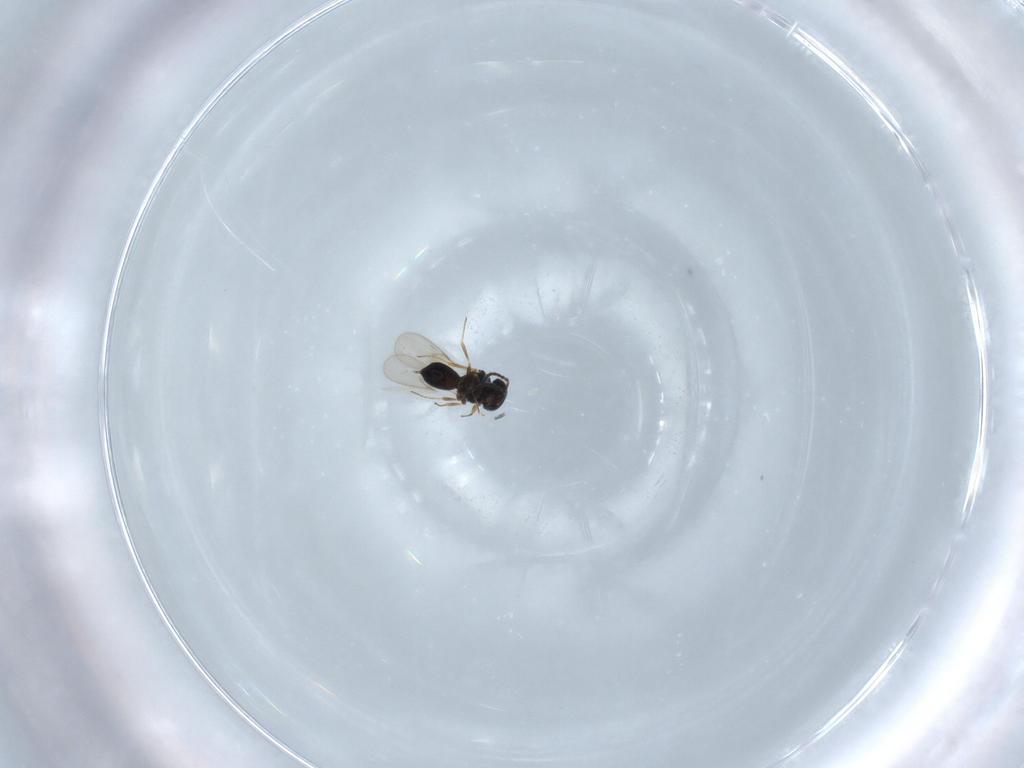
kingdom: Animalia
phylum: Arthropoda
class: Insecta
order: Hymenoptera
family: Scelionidae
